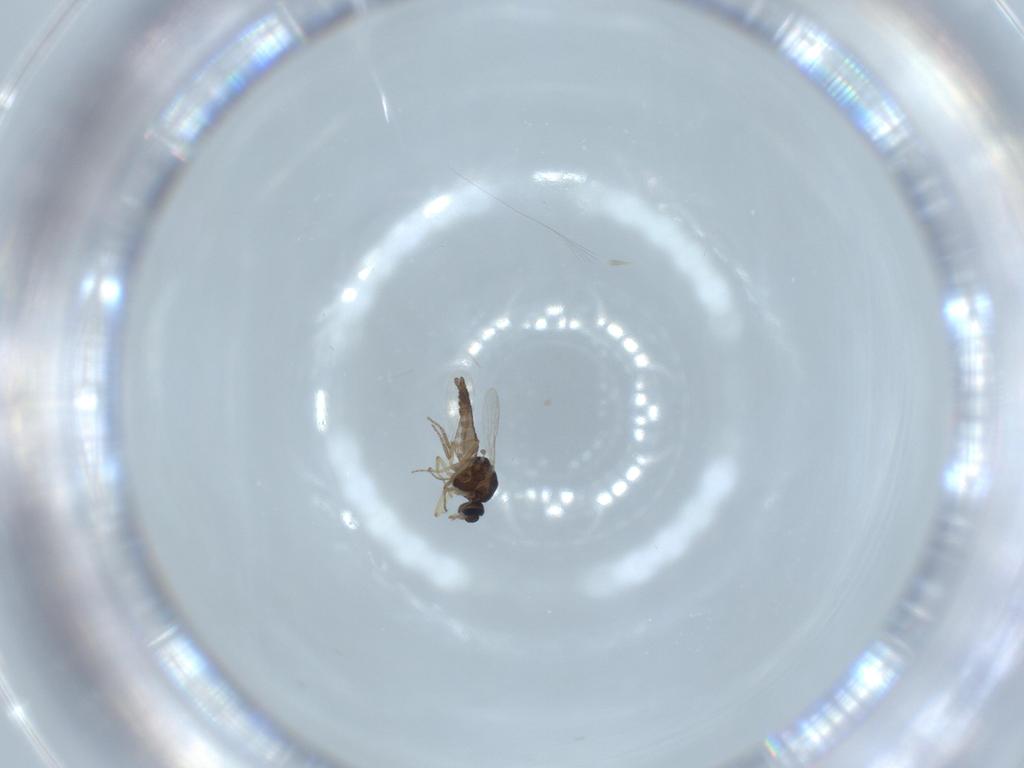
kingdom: Animalia
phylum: Arthropoda
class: Insecta
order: Diptera
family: Ceratopogonidae
